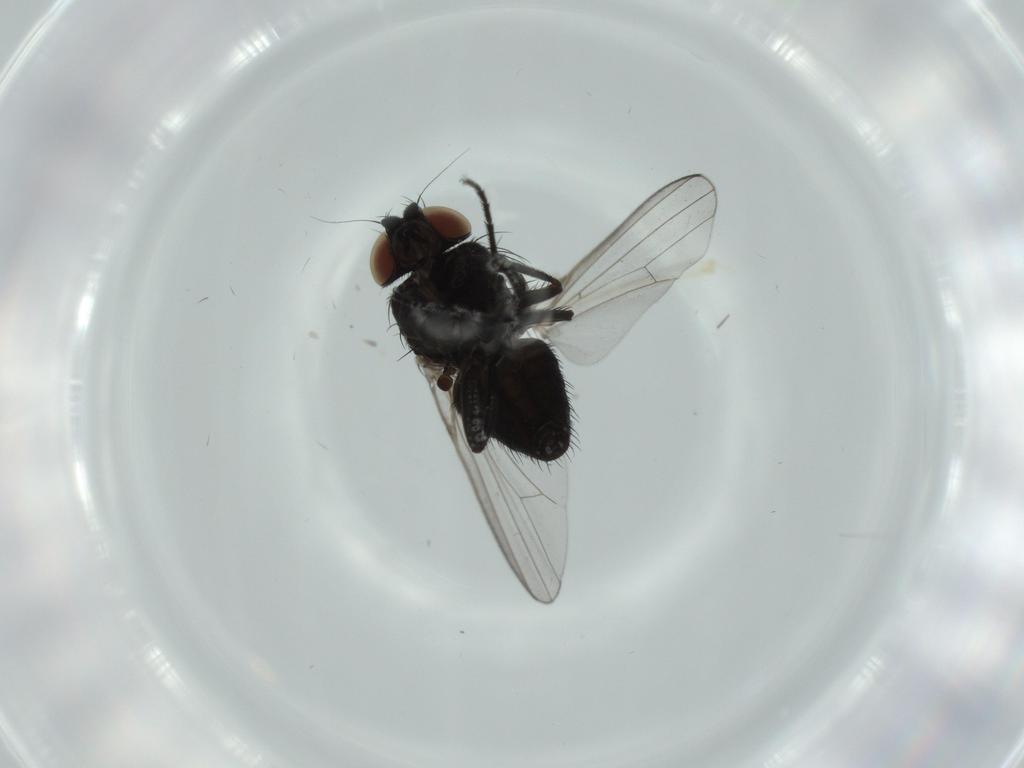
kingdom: Animalia
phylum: Arthropoda
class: Insecta
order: Diptera
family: Milichiidae
